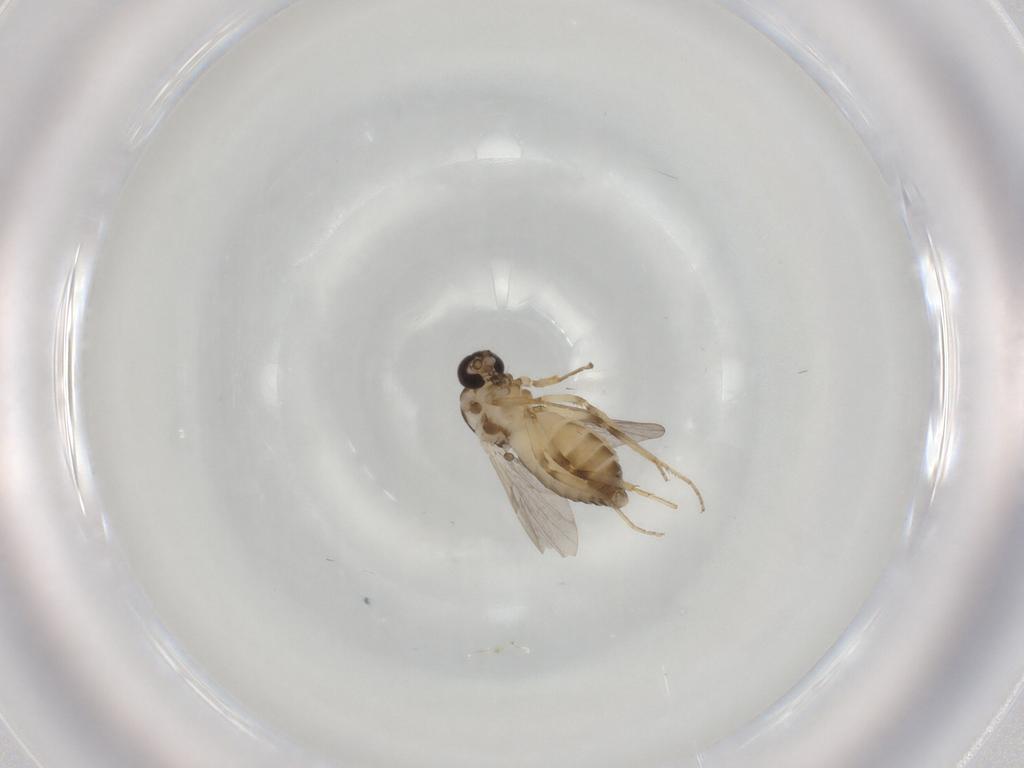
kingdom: Animalia
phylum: Arthropoda
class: Insecta
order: Diptera
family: Ceratopogonidae
